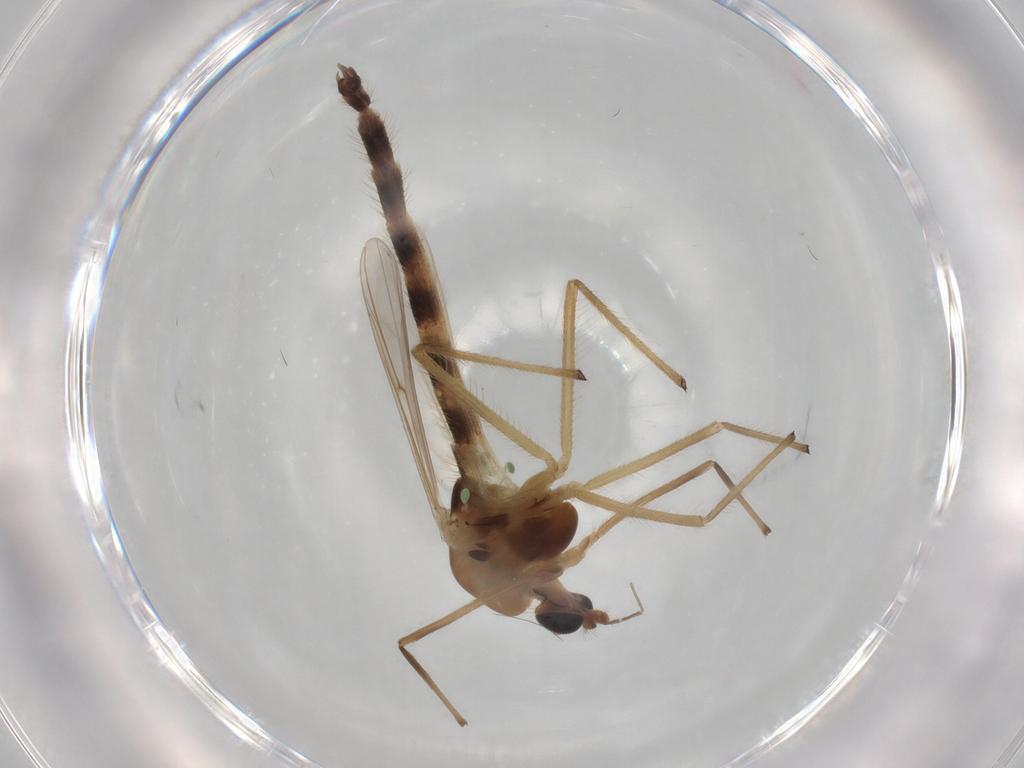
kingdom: Animalia
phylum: Arthropoda
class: Insecta
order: Diptera
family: Chironomidae
